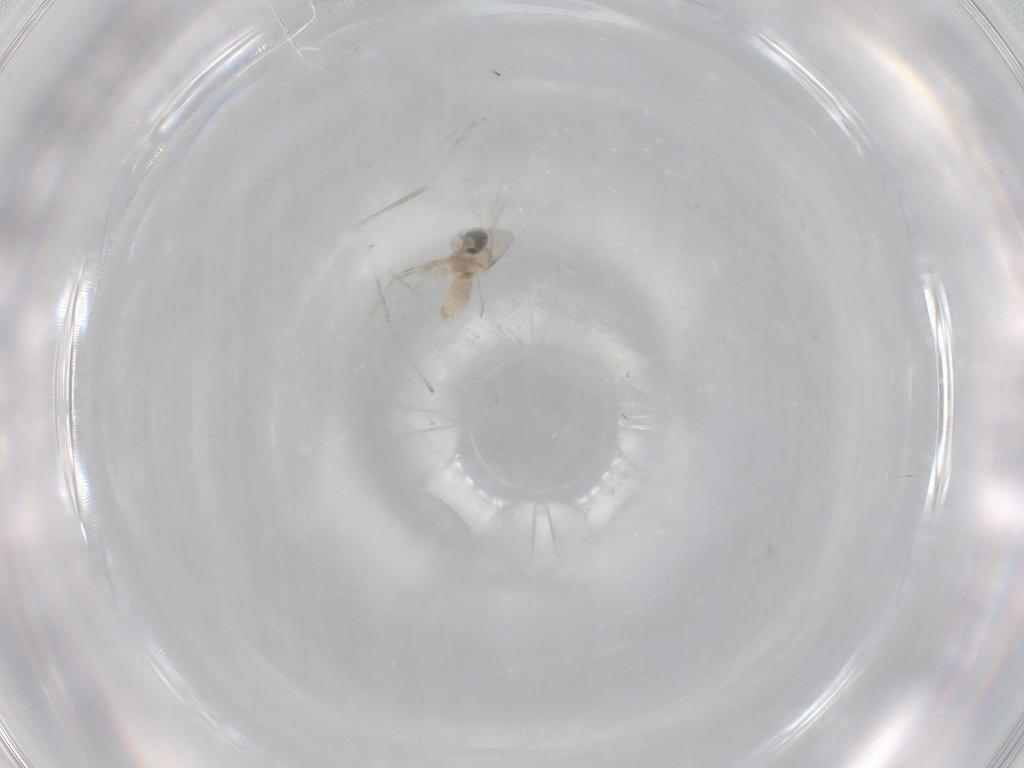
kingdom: Animalia
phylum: Arthropoda
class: Insecta
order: Diptera
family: Cecidomyiidae
